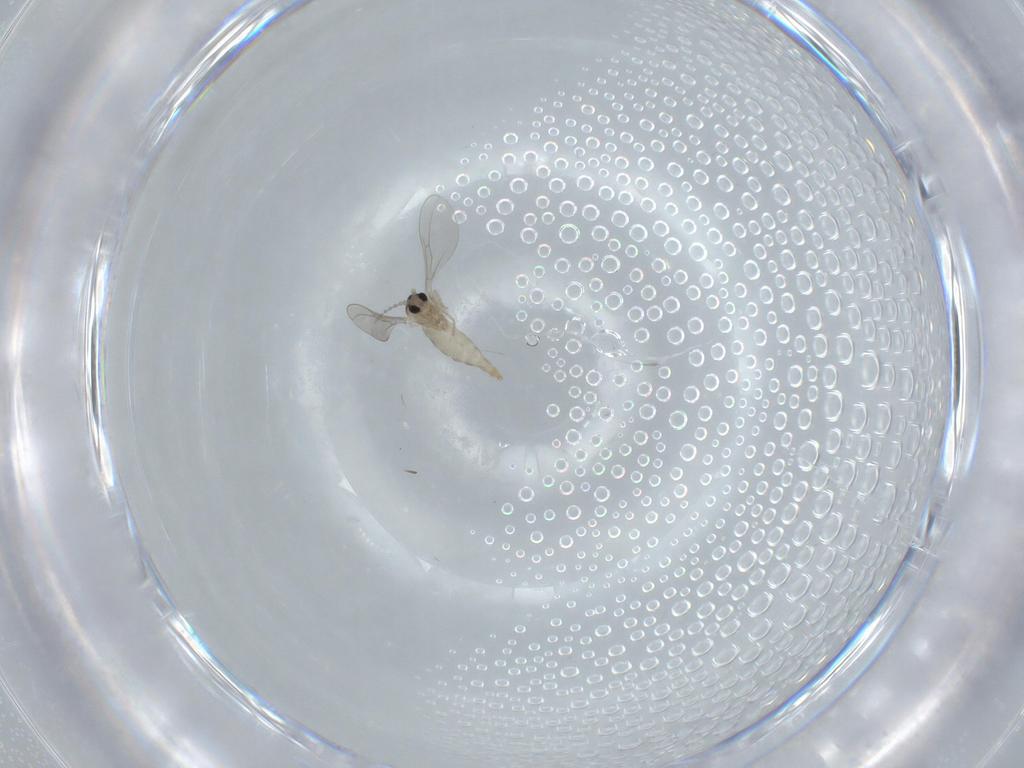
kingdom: Animalia
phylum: Arthropoda
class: Insecta
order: Diptera
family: Cecidomyiidae
